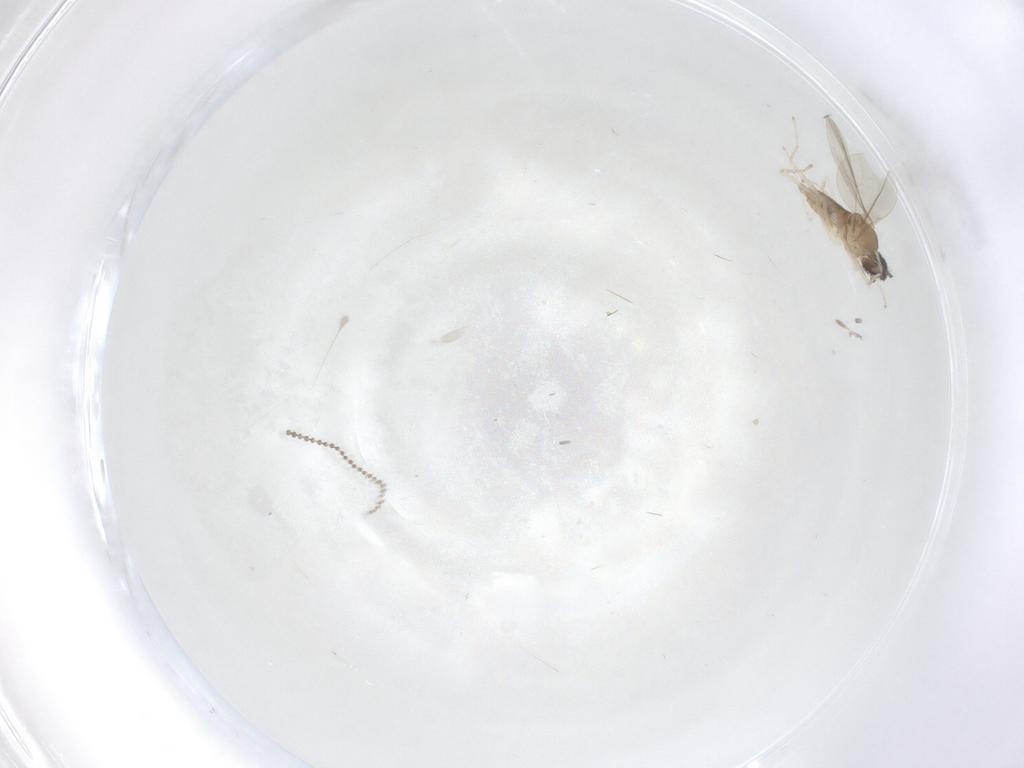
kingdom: Animalia
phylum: Arthropoda
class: Insecta
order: Diptera
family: Cecidomyiidae
